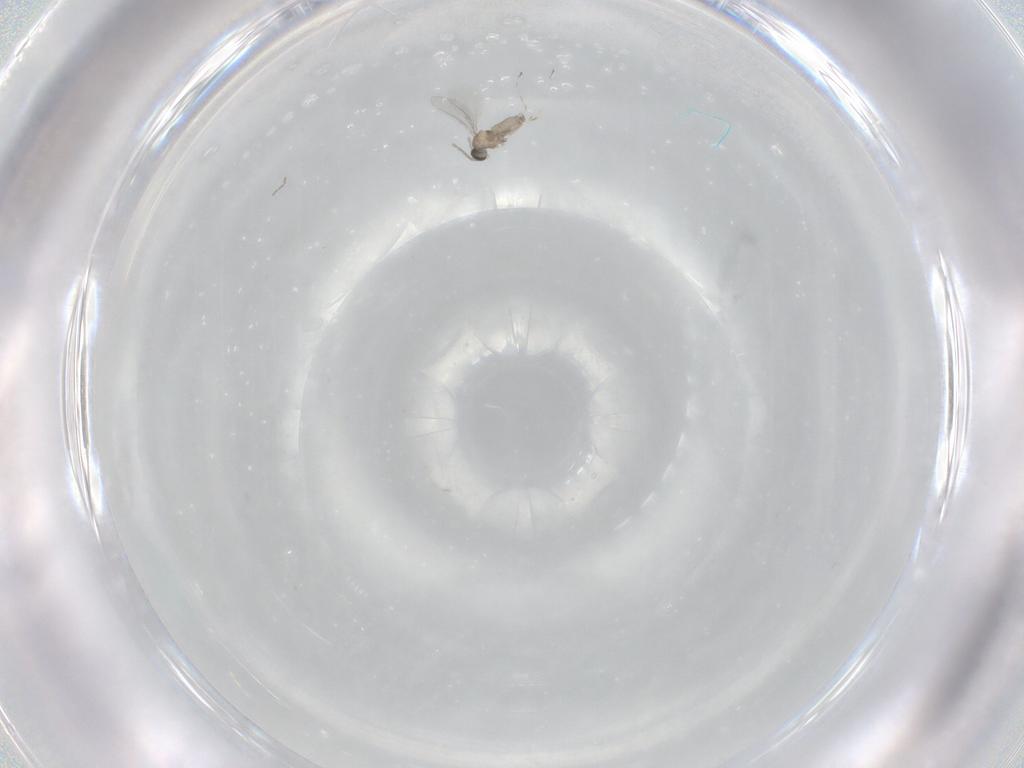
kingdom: Animalia
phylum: Arthropoda
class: Insecta
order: Diptera
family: Cecidomyiidae
